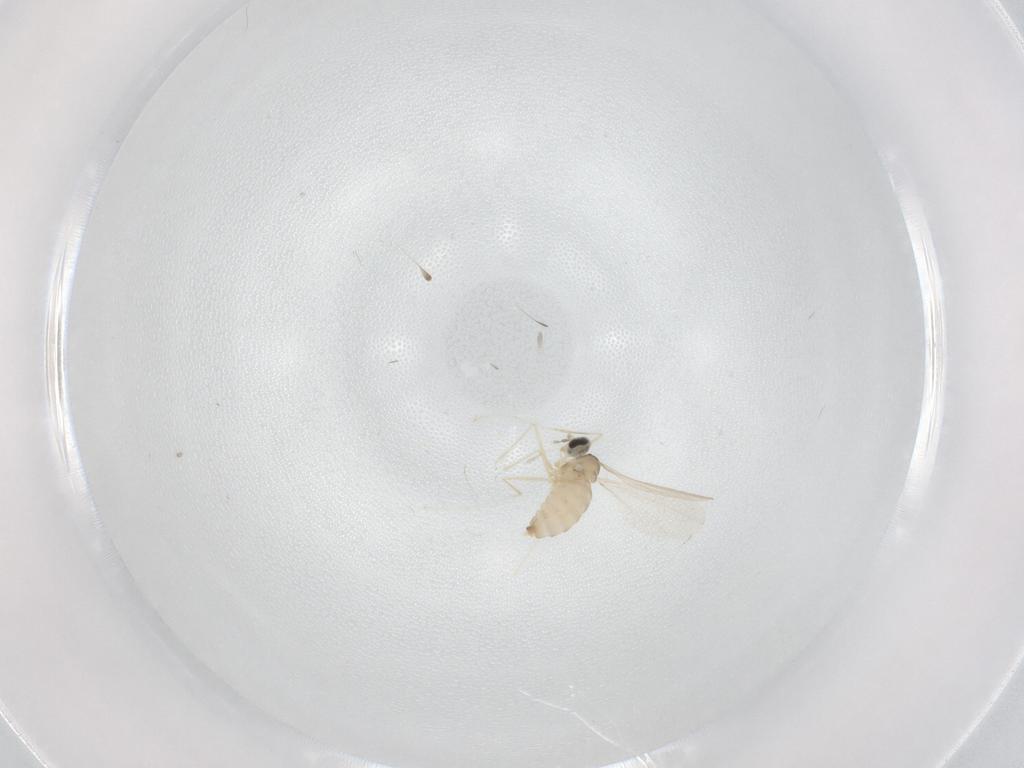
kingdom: Animalia
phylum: Arthropoda
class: Insecta
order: Diptera
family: Cecidomyiidae
